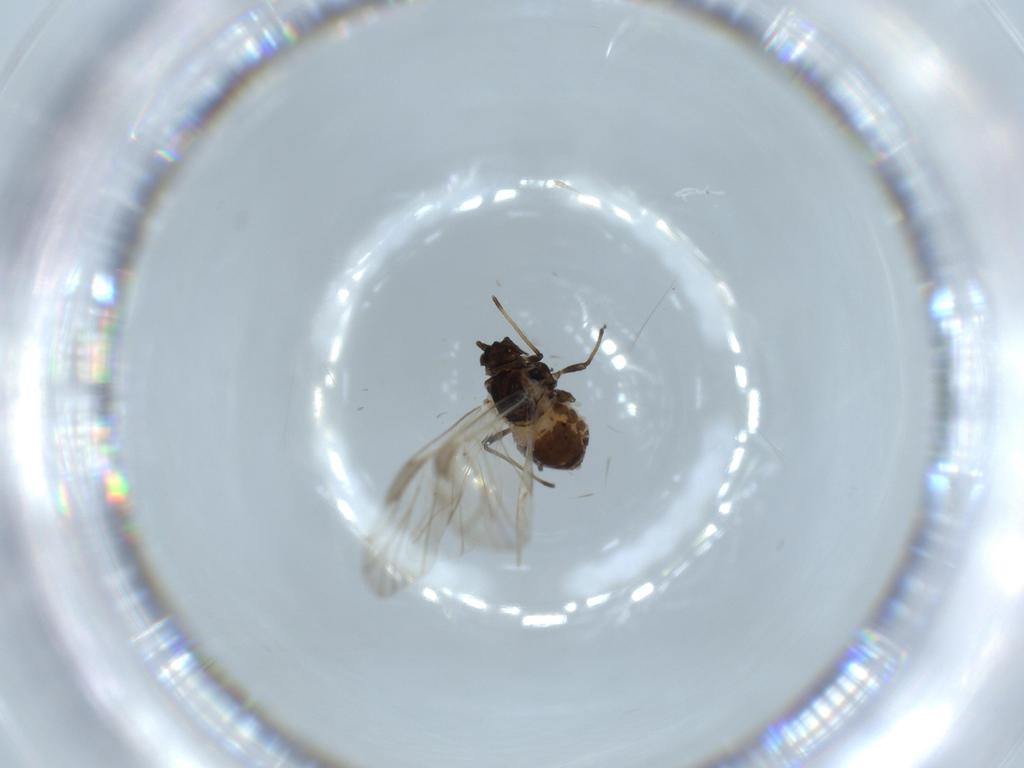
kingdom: Animalia
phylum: Arthropoda
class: Insecta
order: Hemiptera
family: Aphididae
